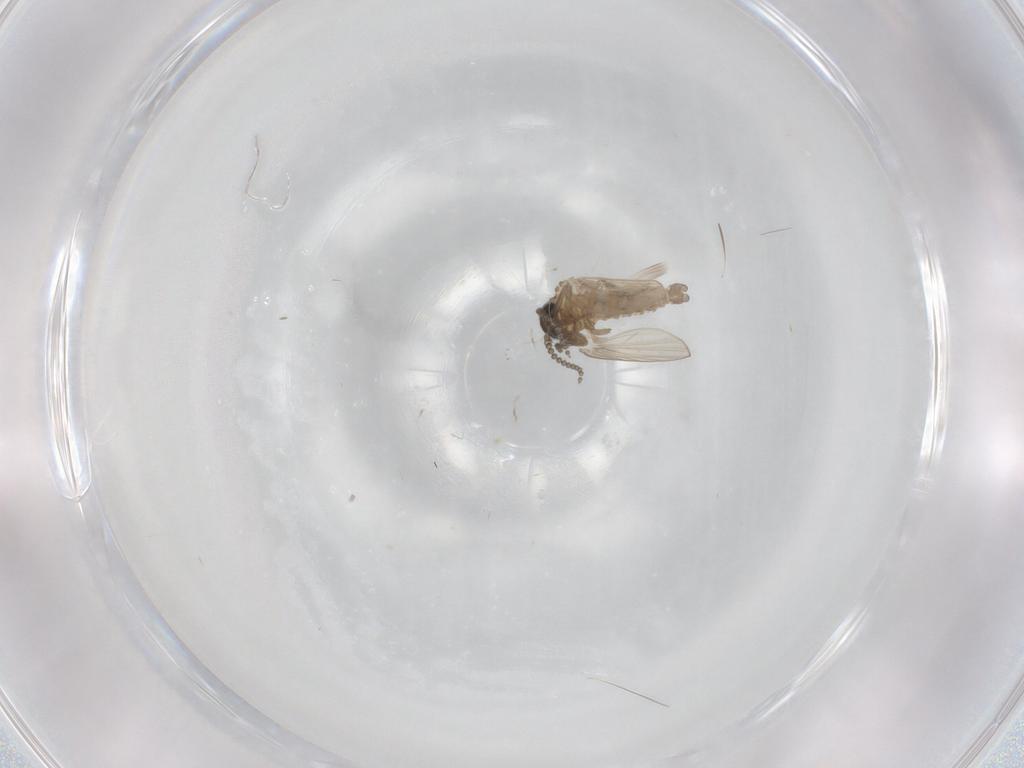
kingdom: Animalia
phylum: Arthropoda
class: Insecta
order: Diptera
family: Psychodidae
